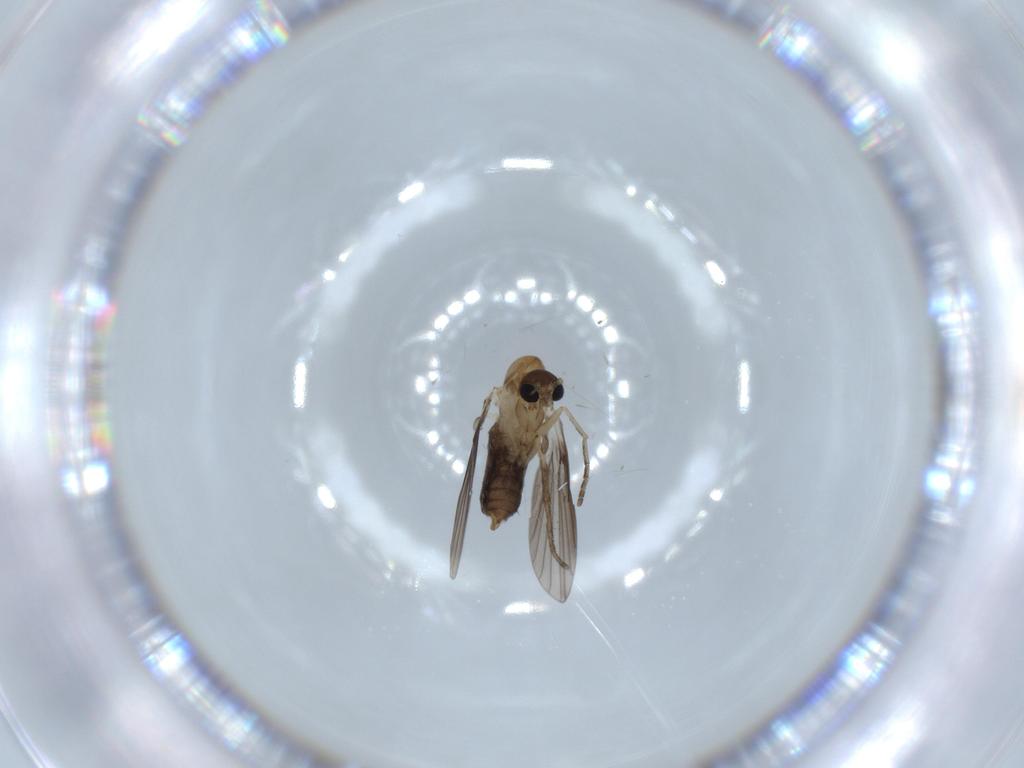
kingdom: Animalia
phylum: Arthropoda
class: Insecta
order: Diptera
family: Psychodidae
